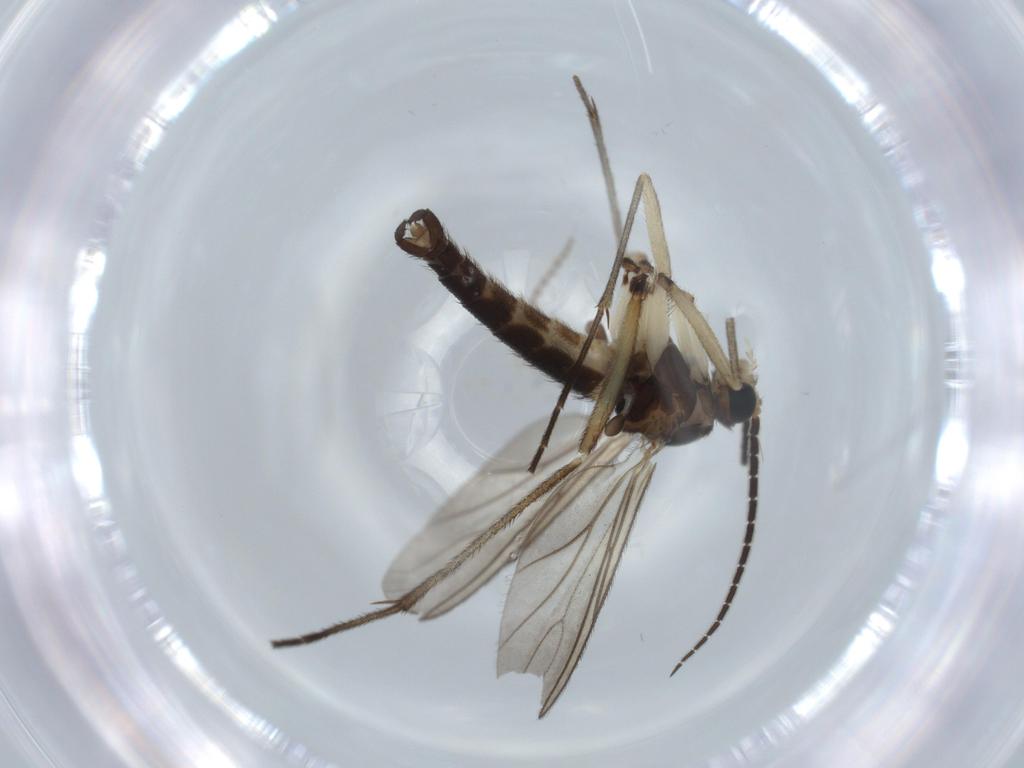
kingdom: Animalia
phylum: Arthropoda
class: Insecta
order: Diptera
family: Sciaridae
